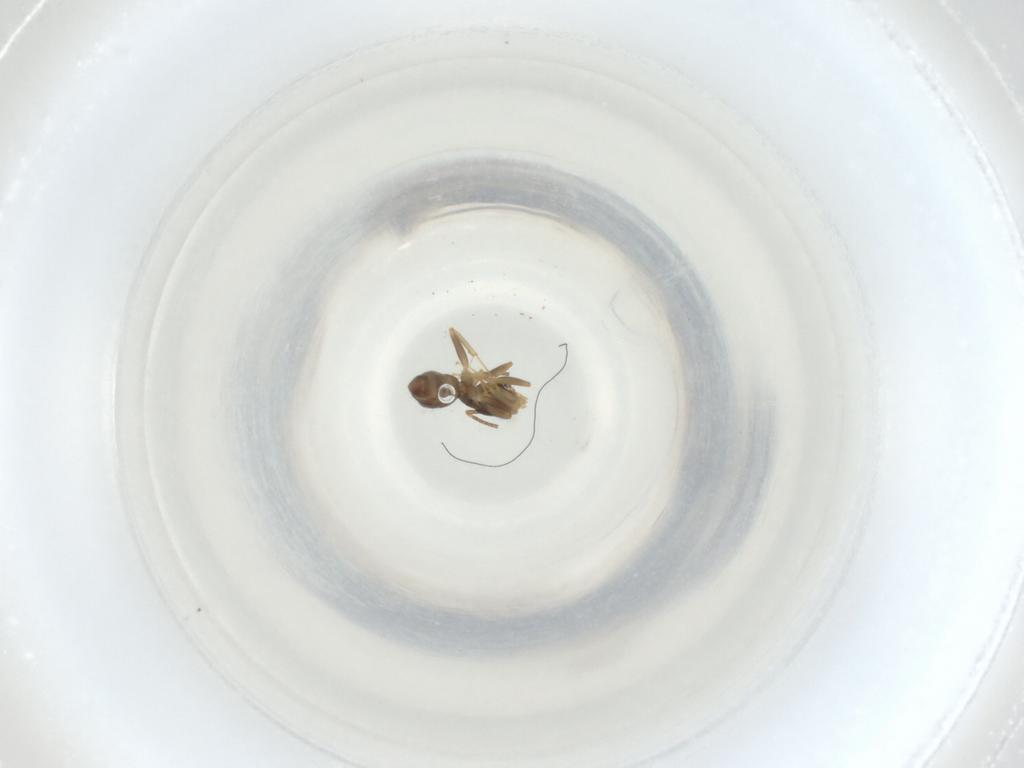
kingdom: Animalia
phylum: Arthropoda
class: Insecta
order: Hymenoptera
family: Formicidae
